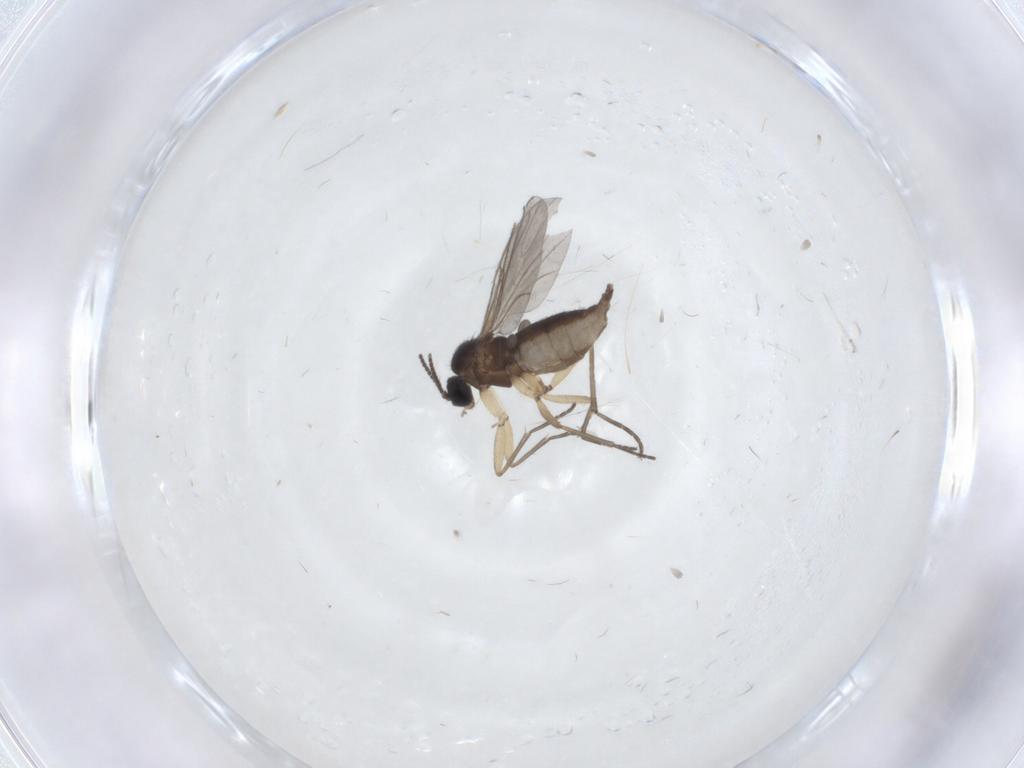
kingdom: Animalia
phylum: Arthropoda
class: Insecta
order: Diptera
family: Sciaridae
